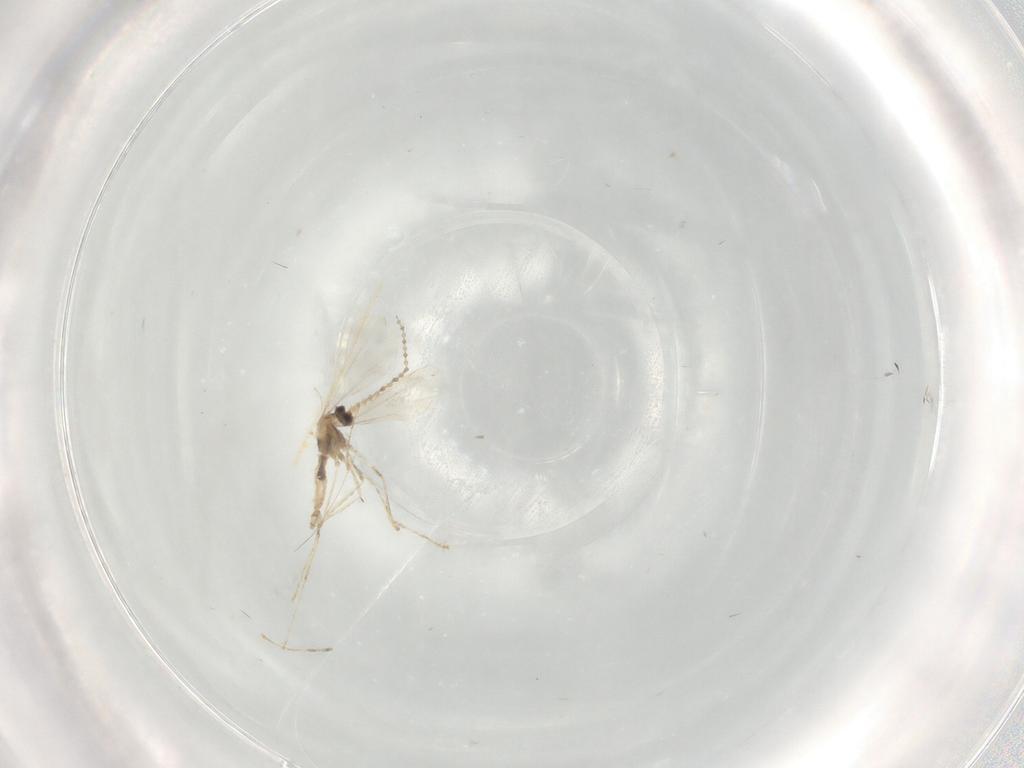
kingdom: Animalia
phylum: Arthropoda
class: Insecta
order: Diptera
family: Cecidomyiidae
